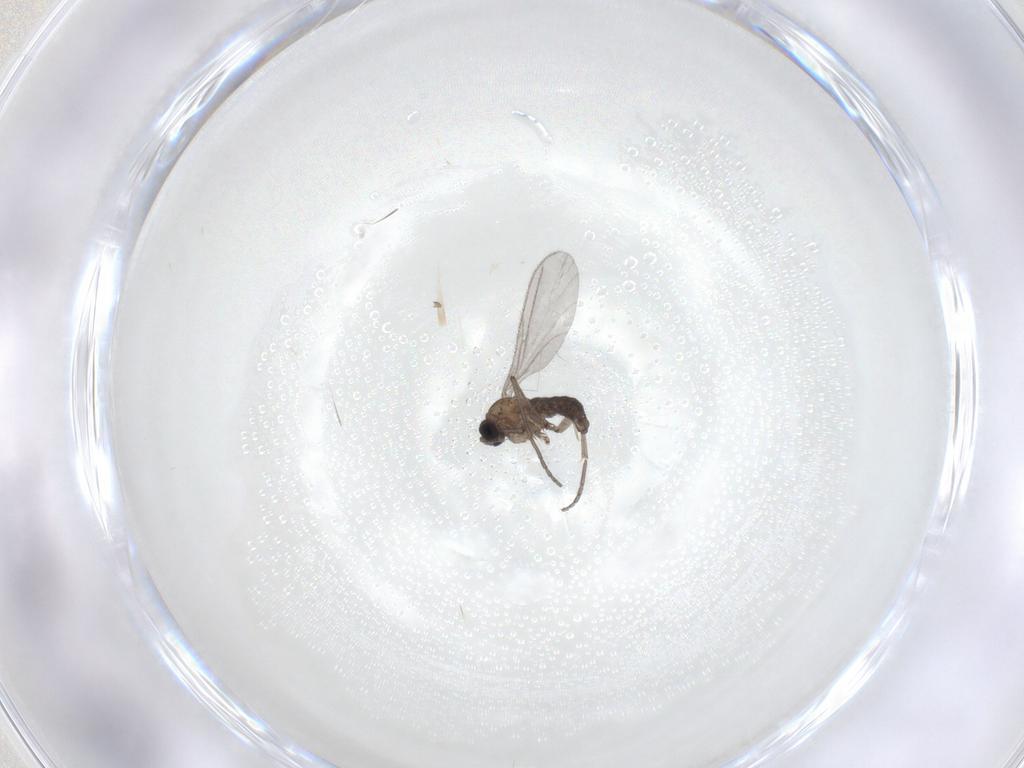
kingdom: Animalia
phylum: Arthropoda
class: Insecta
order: Diptera
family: Sciaridae
